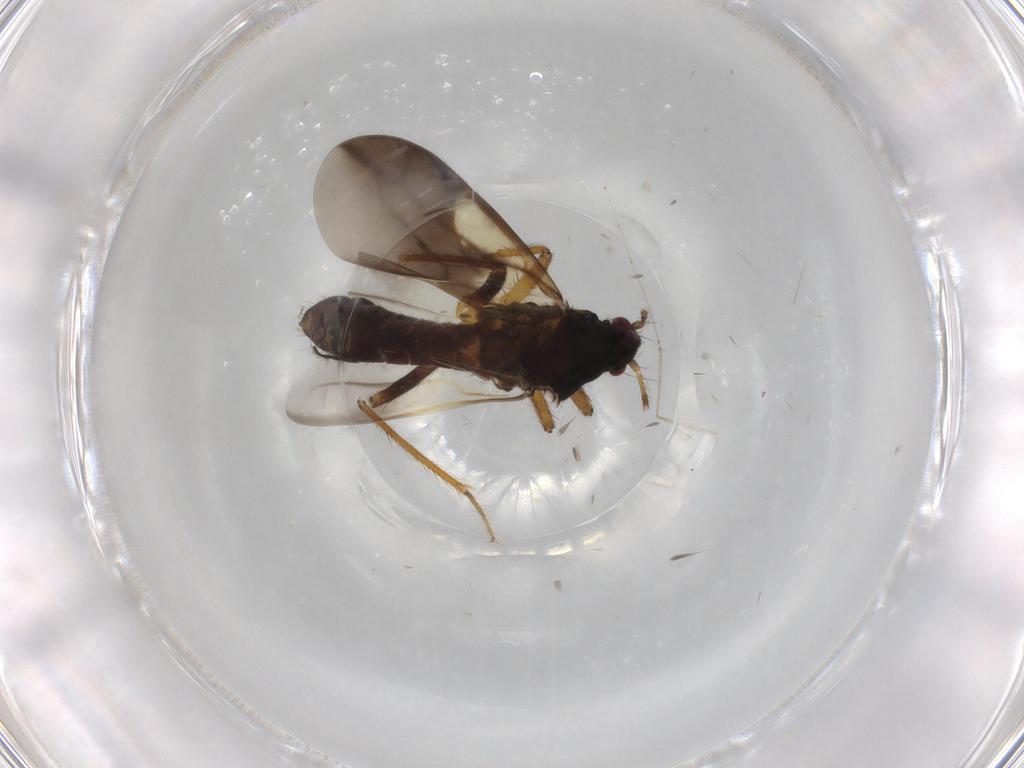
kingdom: Animalia
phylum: Arthropoda
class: Insecta
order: Hemiptera
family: Ceratocombidae
